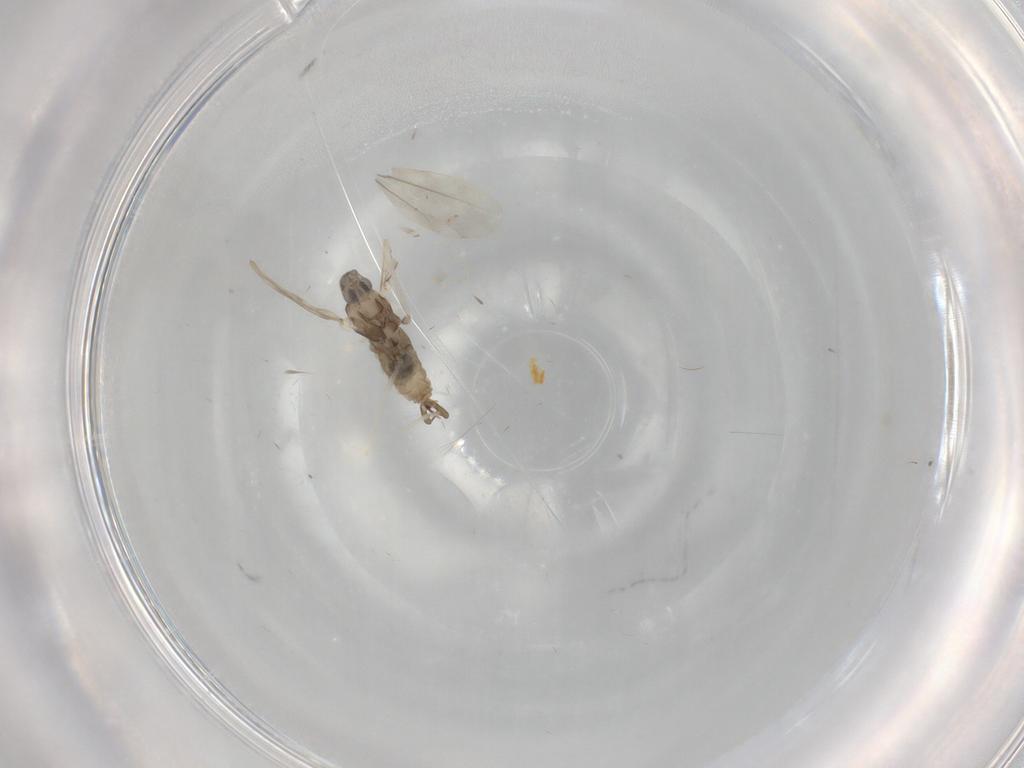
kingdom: Animalia
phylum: Arthropoda
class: Insecta
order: Diptera
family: Cecidomyiidae
